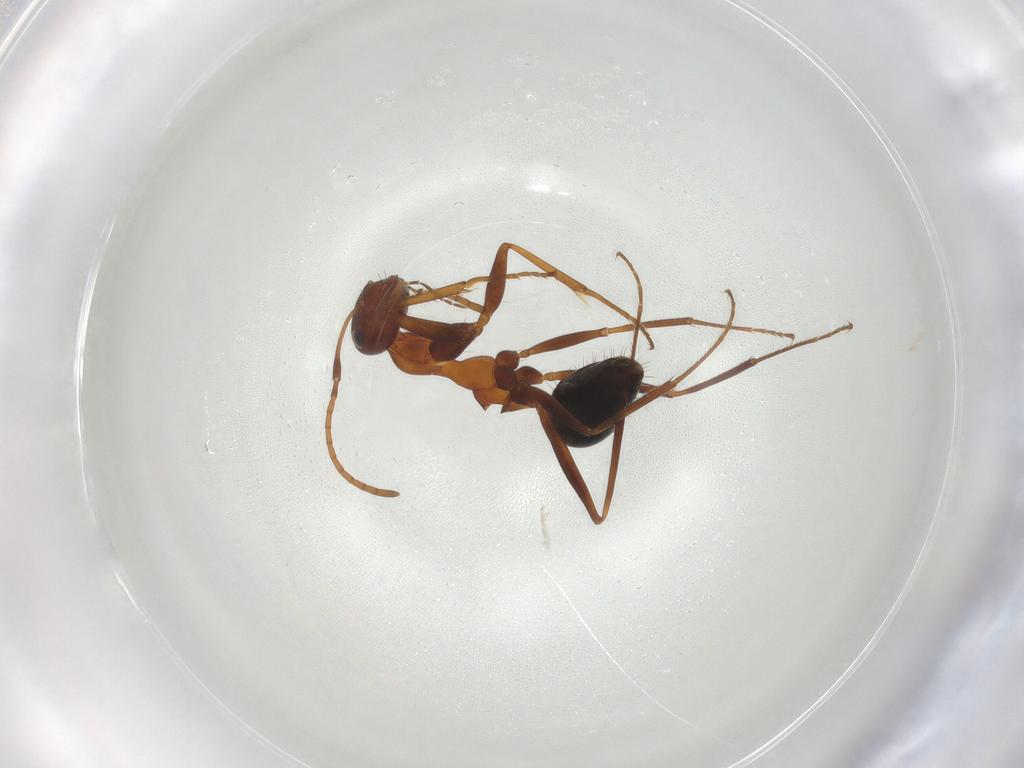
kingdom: Animalia
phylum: Arthropoda
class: Insecta
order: Hymenoptera
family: Formicidae
